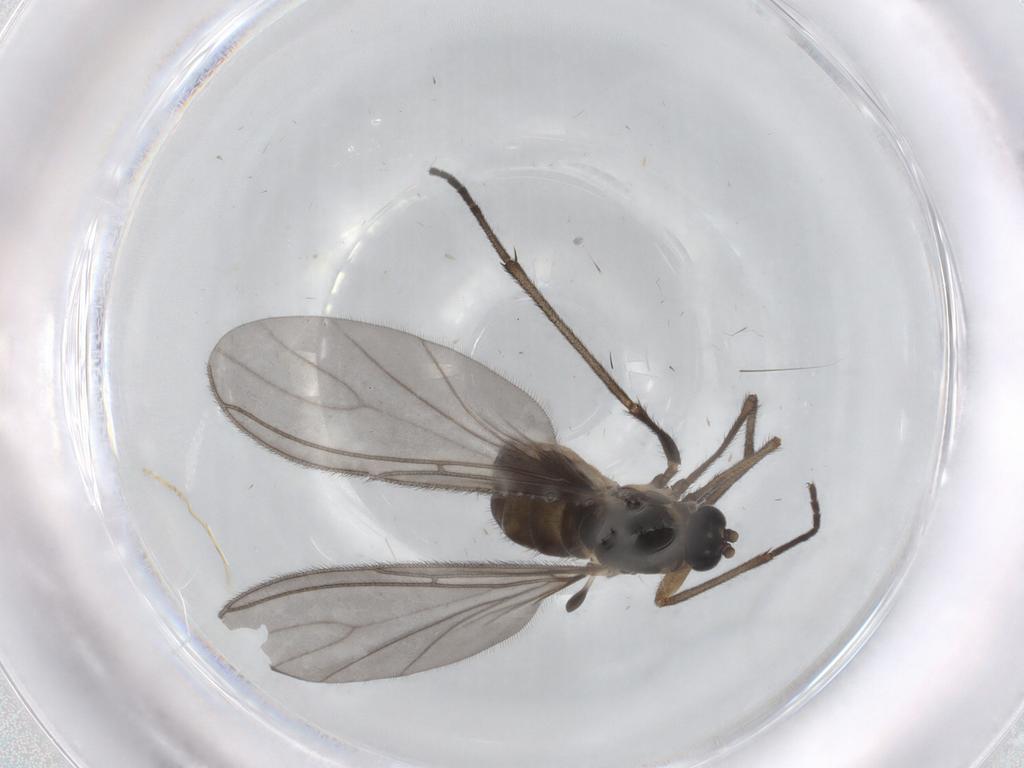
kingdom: Animalia
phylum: Arthropoda
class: Insecta
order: Diptera
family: Sciaridae
